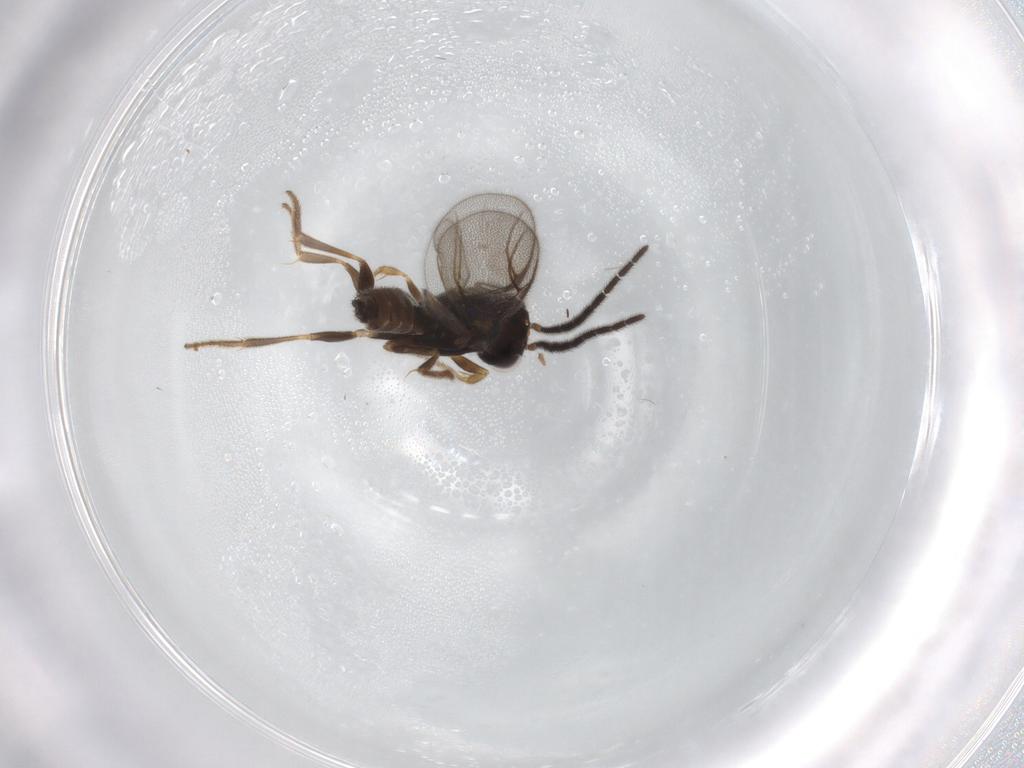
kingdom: Animalia
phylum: Arthropoda
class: Insecta
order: Hymenoptera
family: Dryinidae
